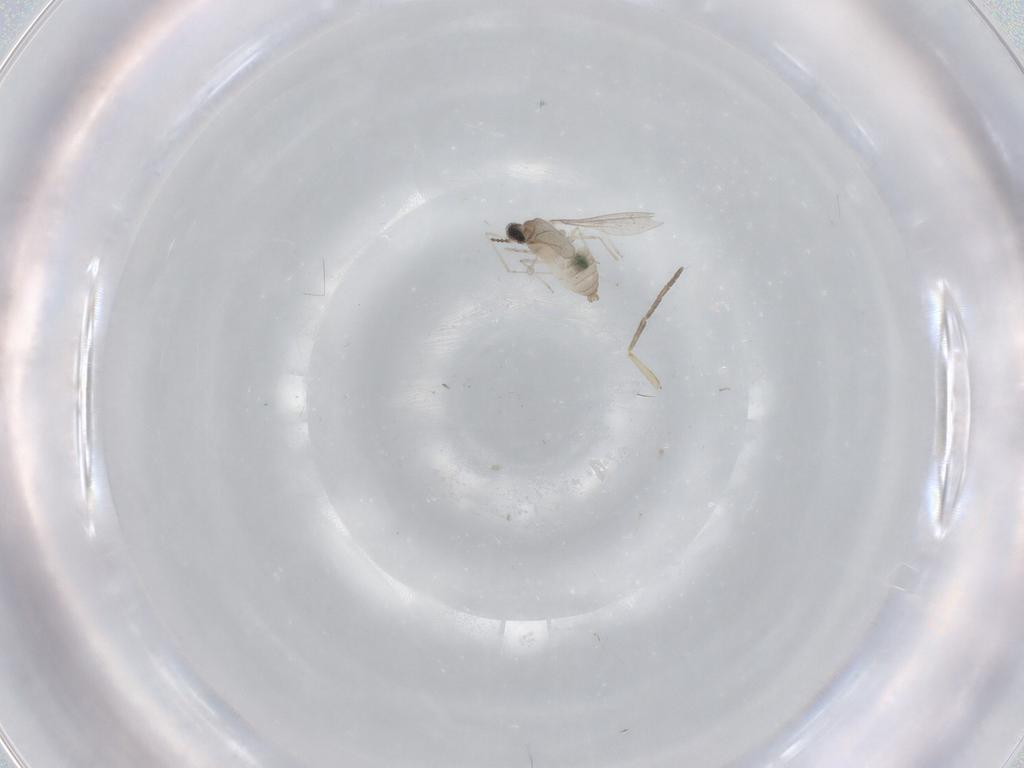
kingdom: Animalia
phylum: Arthropoda
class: Insecta
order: Diptera
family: Cecidomyiidae
